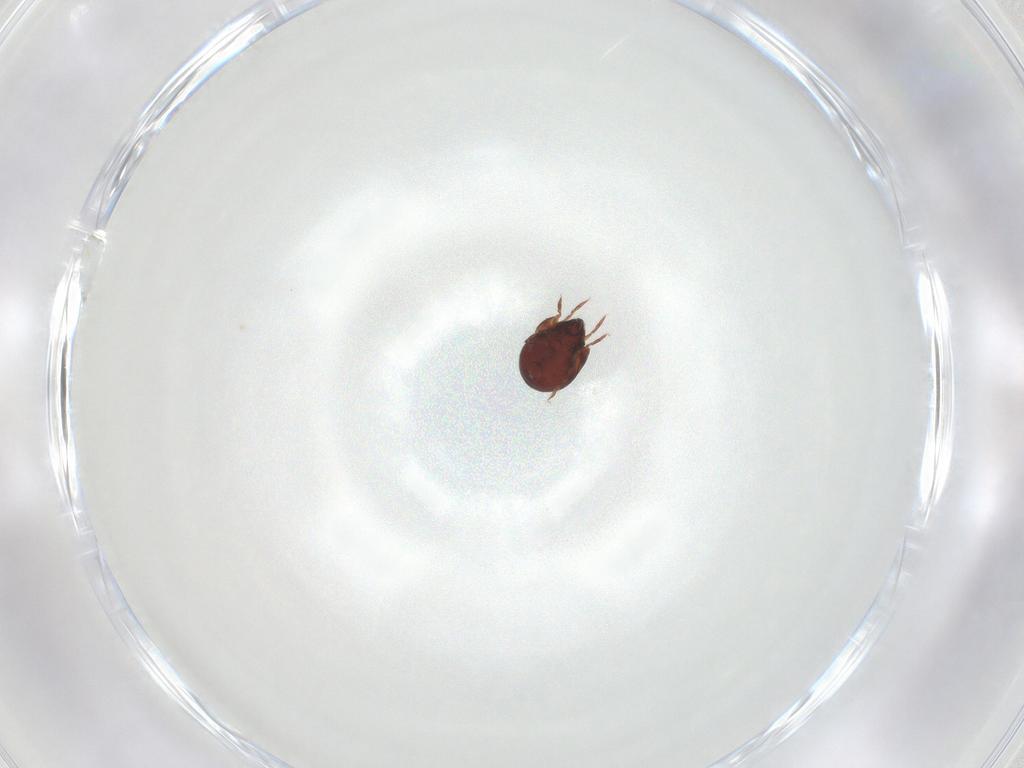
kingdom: Animalia
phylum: Arthropoda
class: Arachnida
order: Sarcoptiformes
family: Humerobatidae
